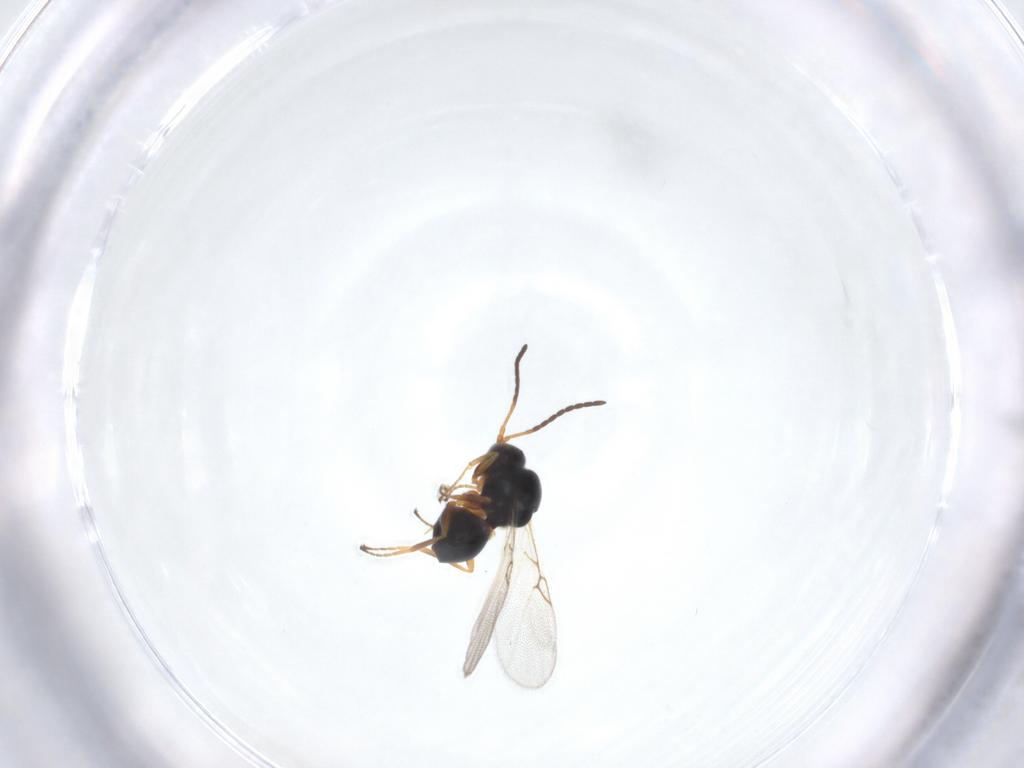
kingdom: Animalia
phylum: Arthropoda
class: Insecta
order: Hymenoptera
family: Figitidae
